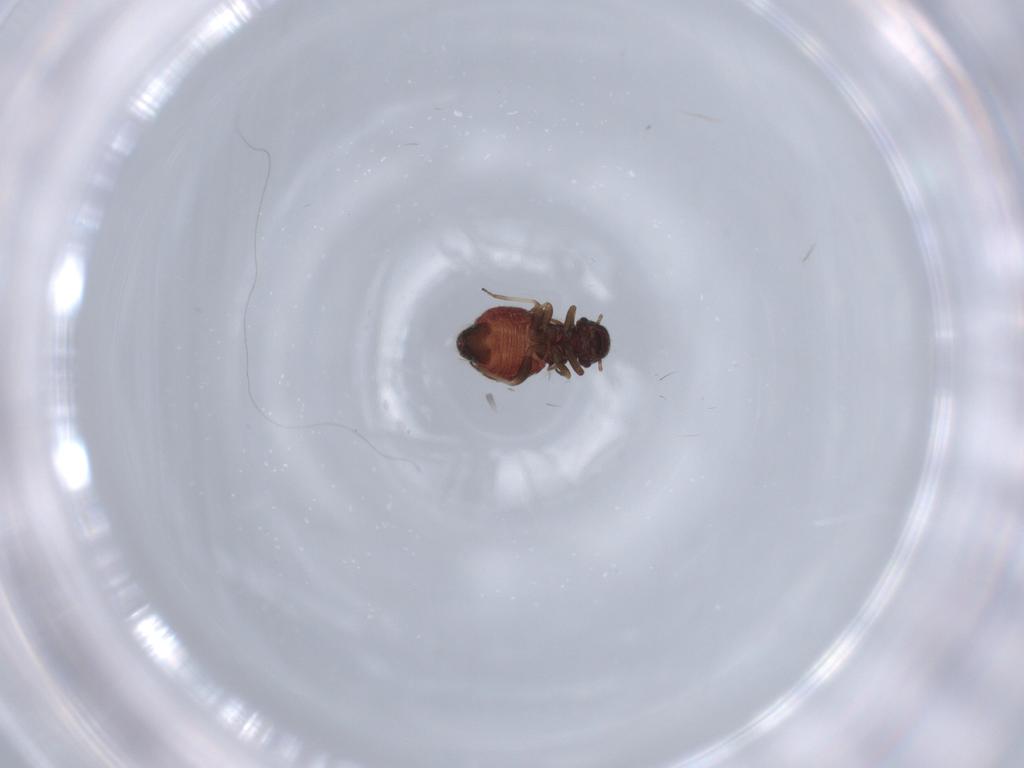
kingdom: Animalia
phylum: Arthropoda
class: Insecta
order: Psocodea
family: Archipsocidae
